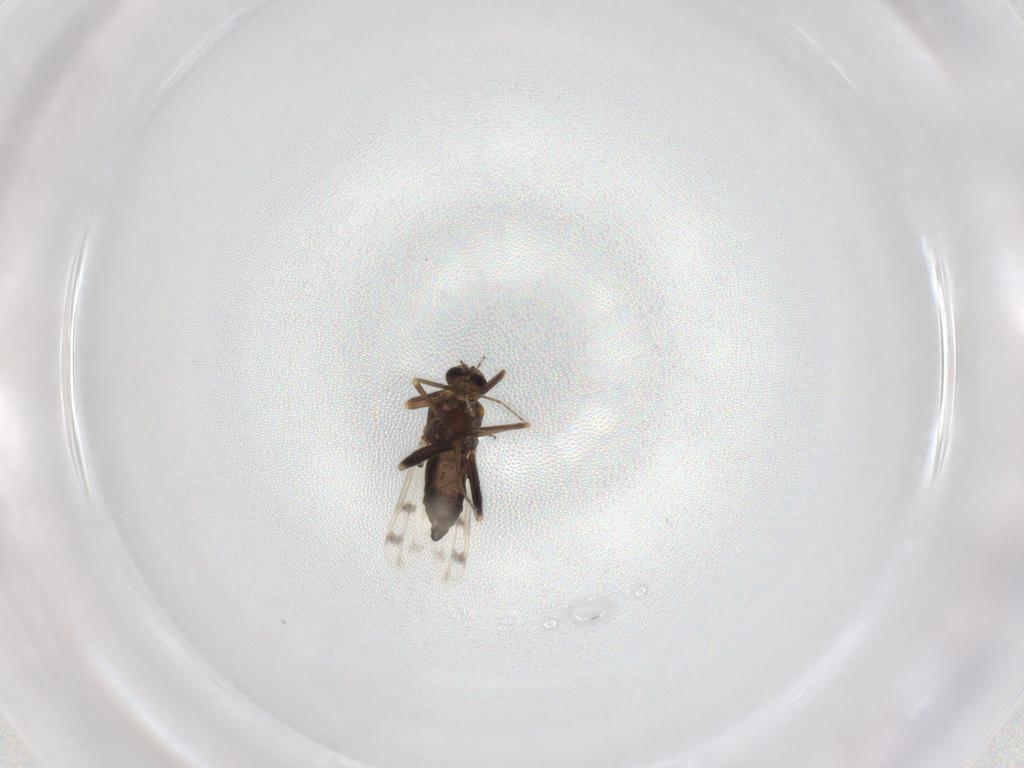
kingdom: Animalia
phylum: Arthropoda
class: Insecta
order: Diptera
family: Ceratopogonidae
